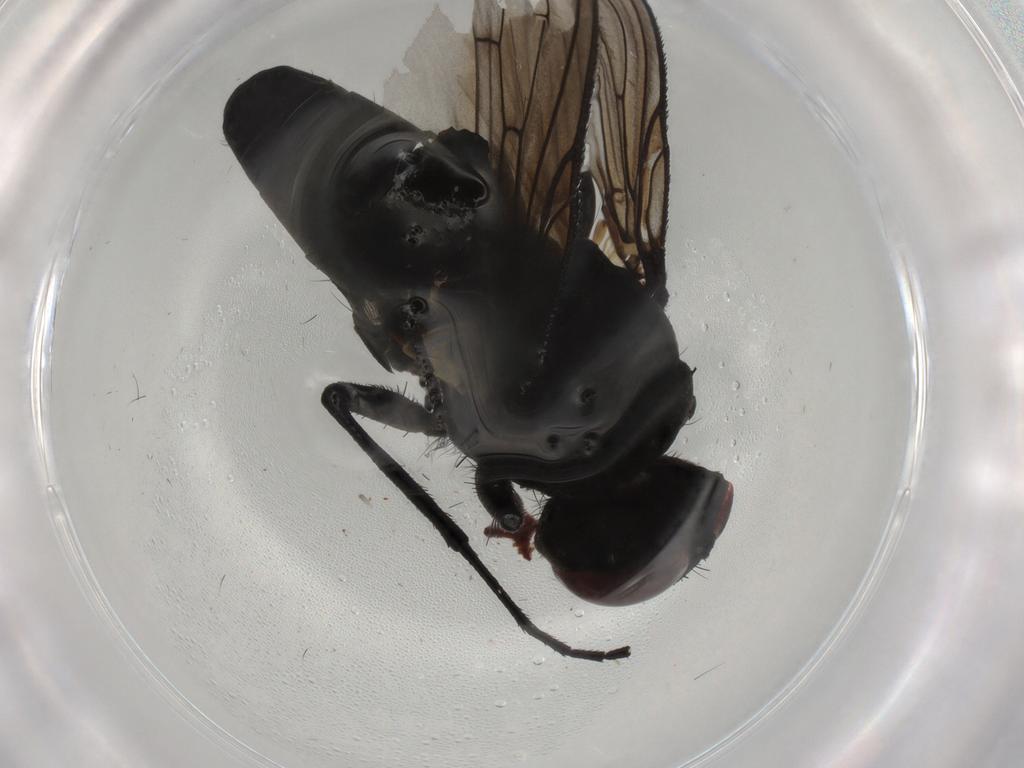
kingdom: Animalia
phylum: Arthropoda
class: Insecta
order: Diptera
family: Chironomidae
